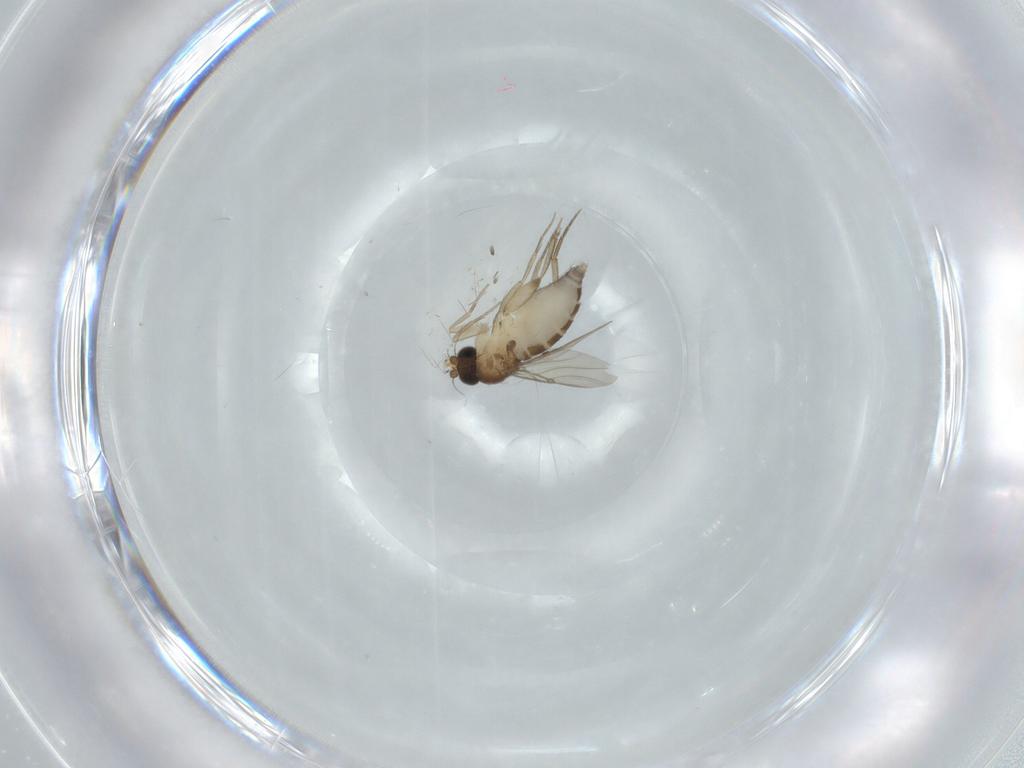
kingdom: Animalia
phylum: Arthropoda
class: Insecta
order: Diptera
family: Phoridae
